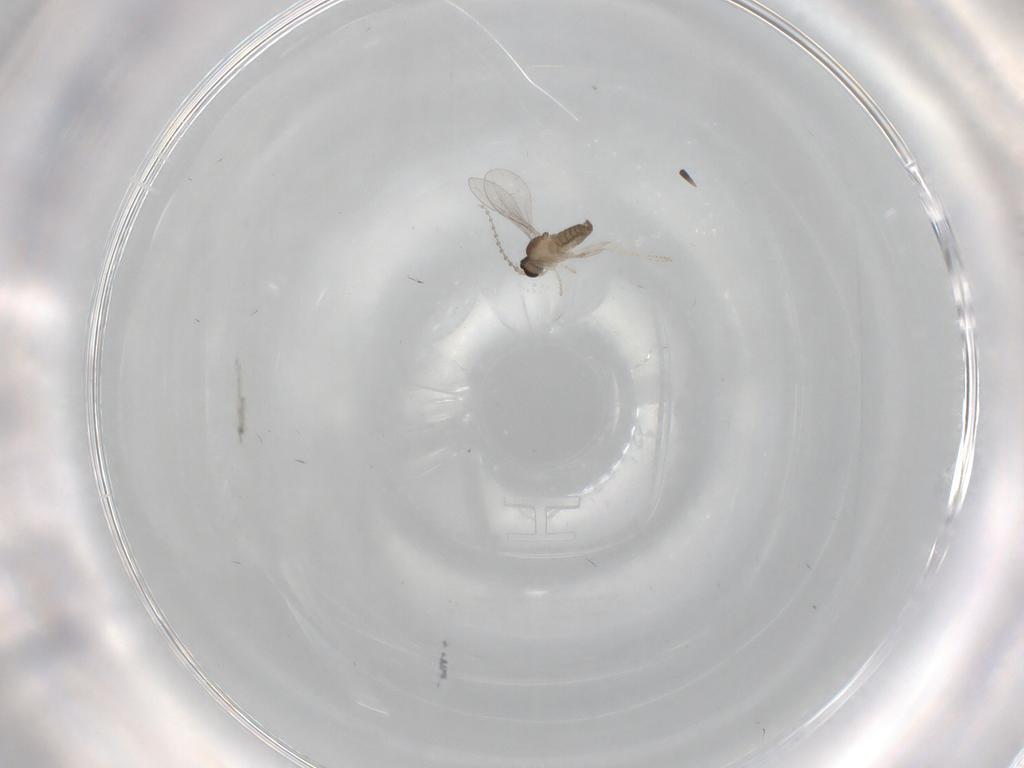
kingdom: Animalia
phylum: Arthropoda
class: Insecta
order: Diptera
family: Cecidomyiidae
